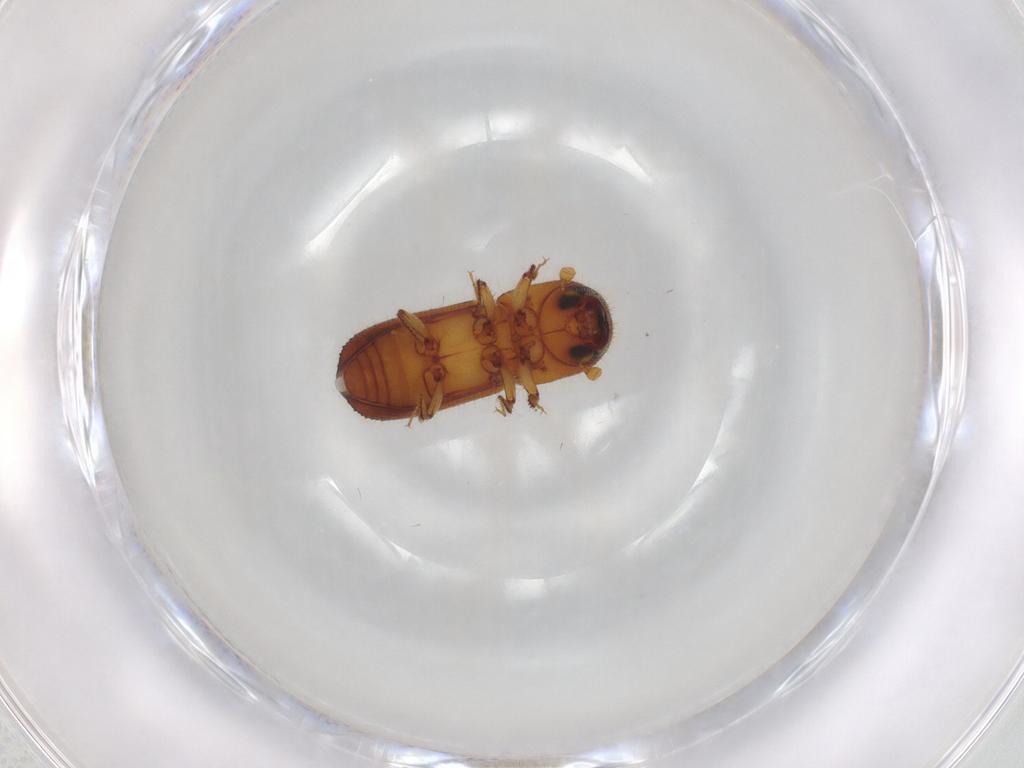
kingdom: Animalia
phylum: Arthropoda
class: Insecta
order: Coleoptera
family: Curculionidae
